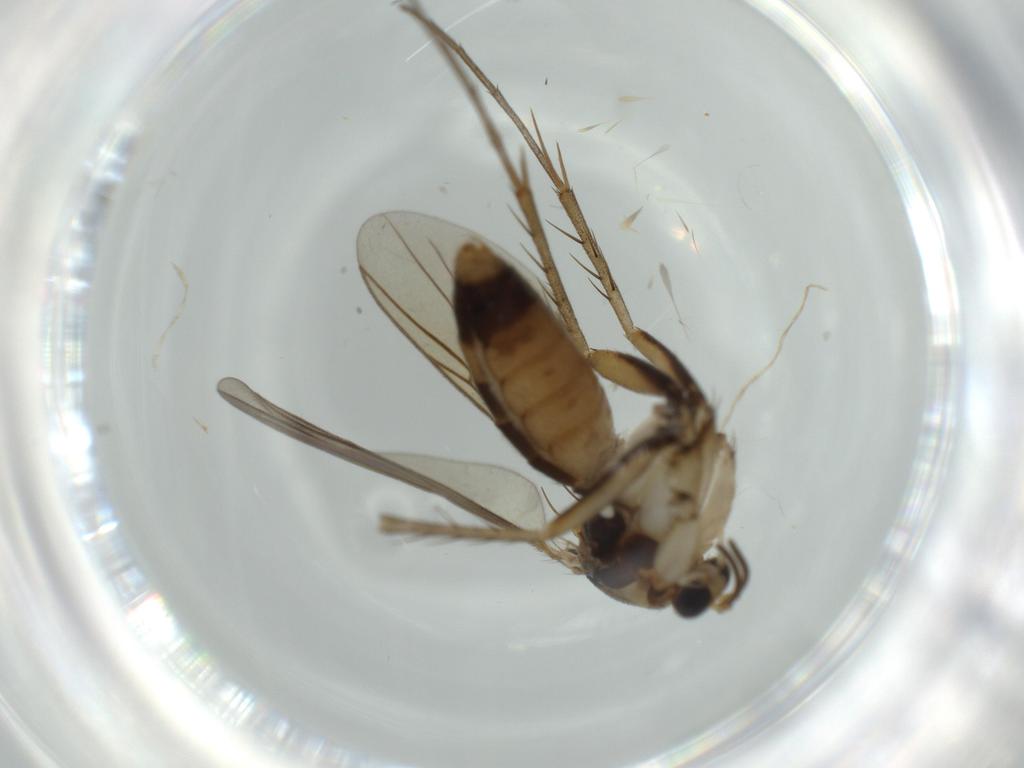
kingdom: Animalia
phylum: Arthropoda
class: Insecta
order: Diptera
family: Mycetophilidae
